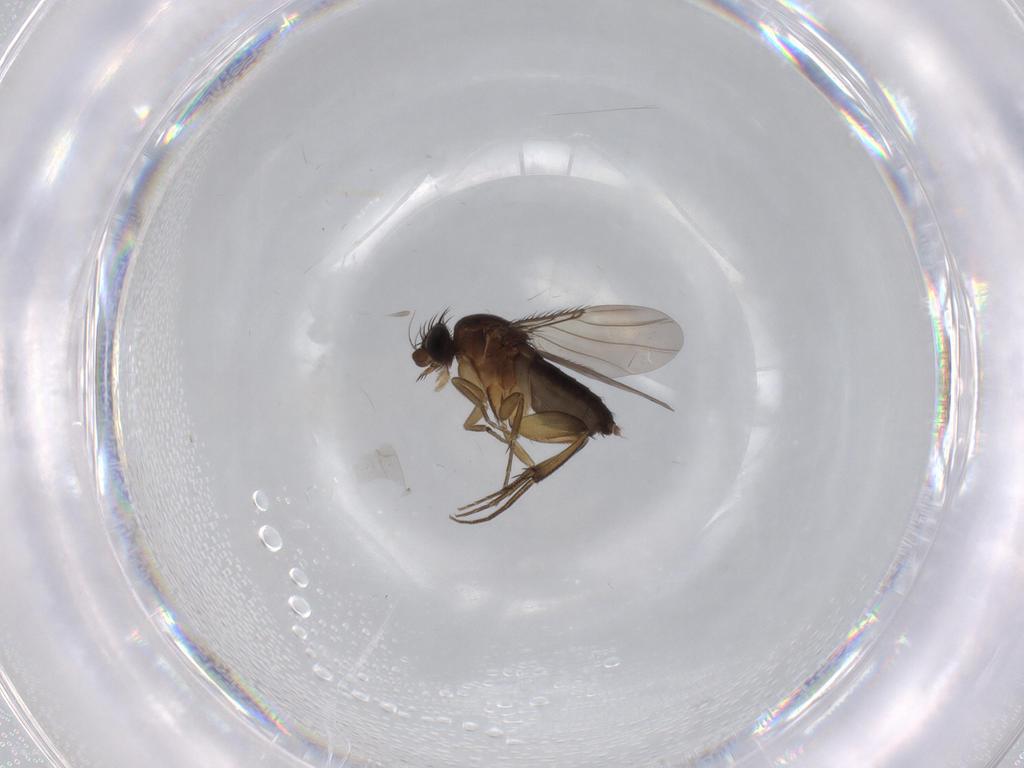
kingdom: Animalia
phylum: Arthropoda
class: Insecta
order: Diptera
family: Phoridae
